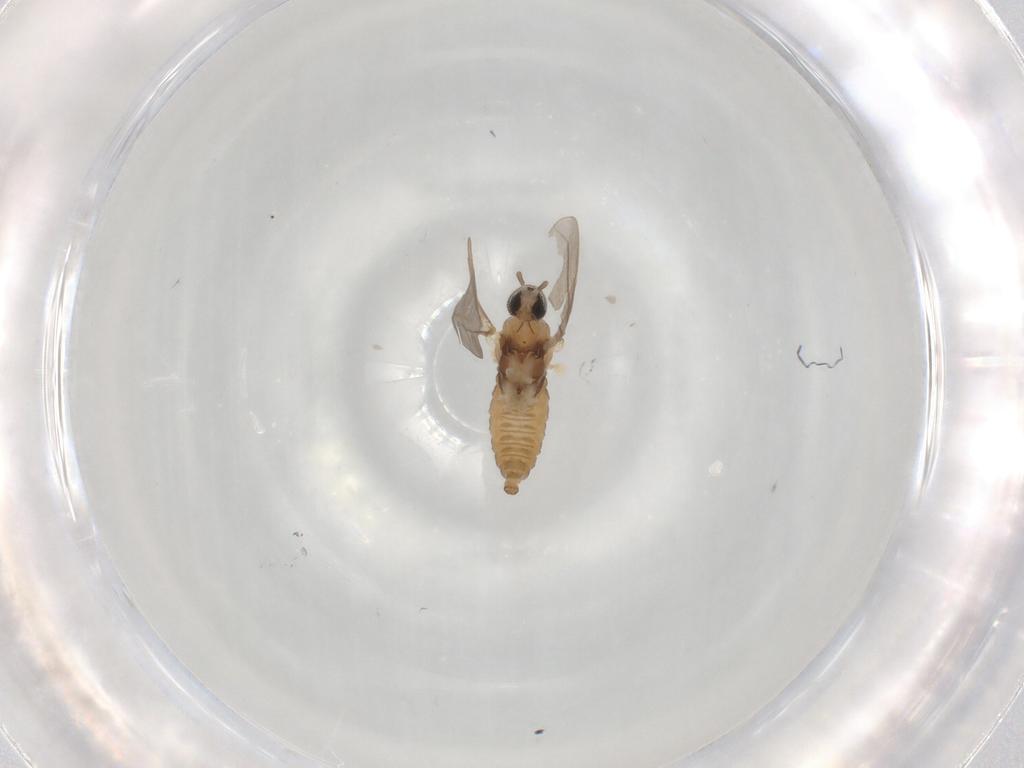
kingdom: Animalia
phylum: Arthropoda
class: Insecta
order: Diptera
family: Cecidomyiidae
